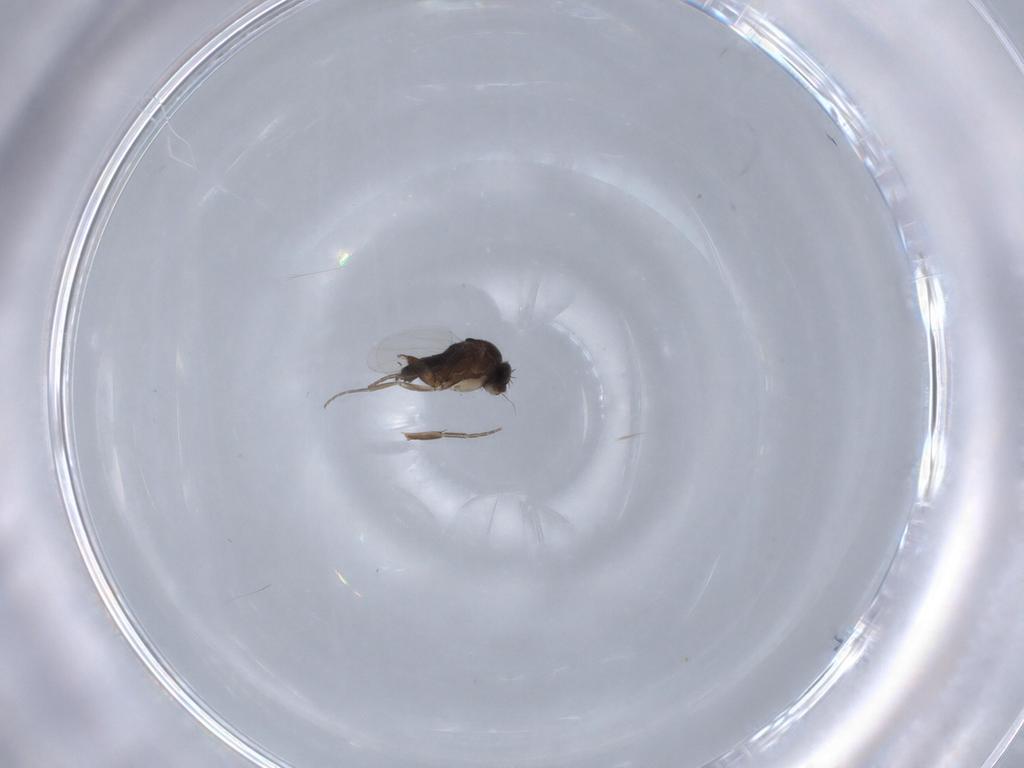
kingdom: Animalia
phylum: Arthropoda
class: Insecta
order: Diptera
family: Phoridae
